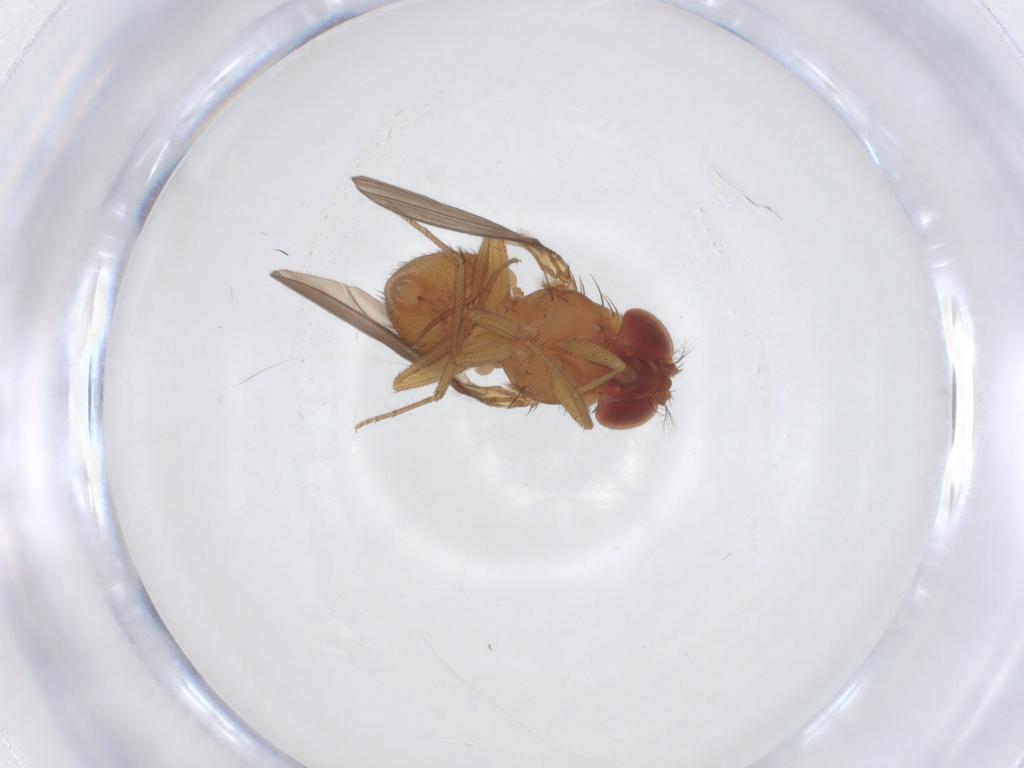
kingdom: Animalia
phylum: Arthropoda
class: Insecta
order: Diptera
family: Drosophilidae
